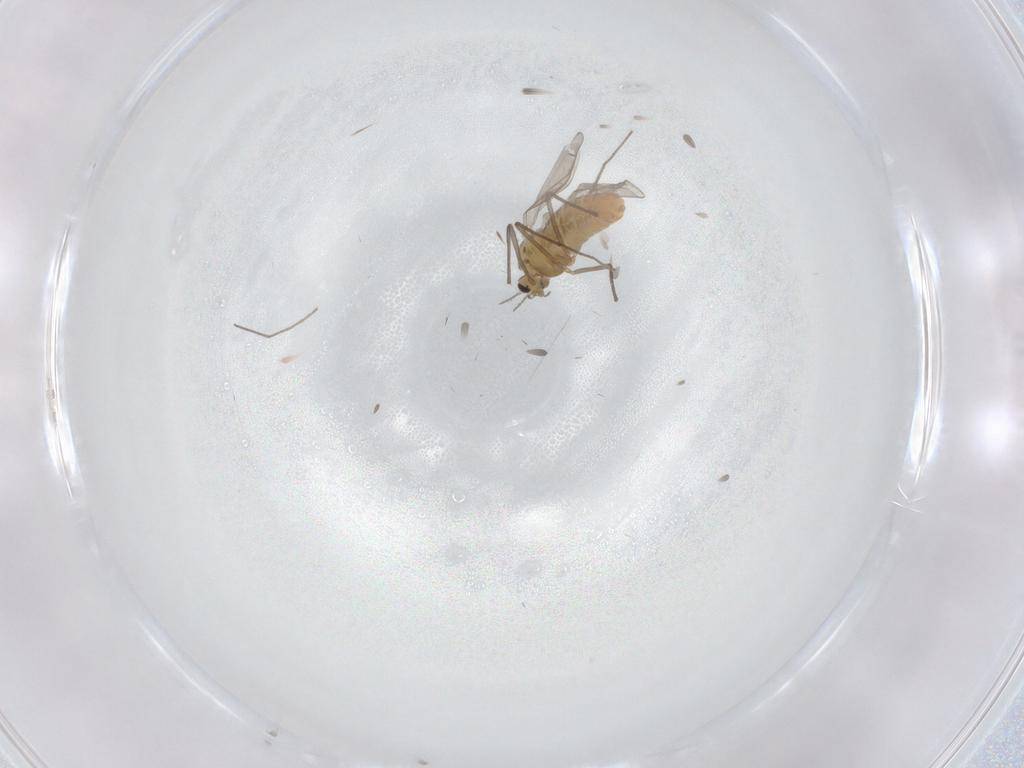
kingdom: Animalia
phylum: Arthropoda
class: Insecta
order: Diptera
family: Chironomidae
